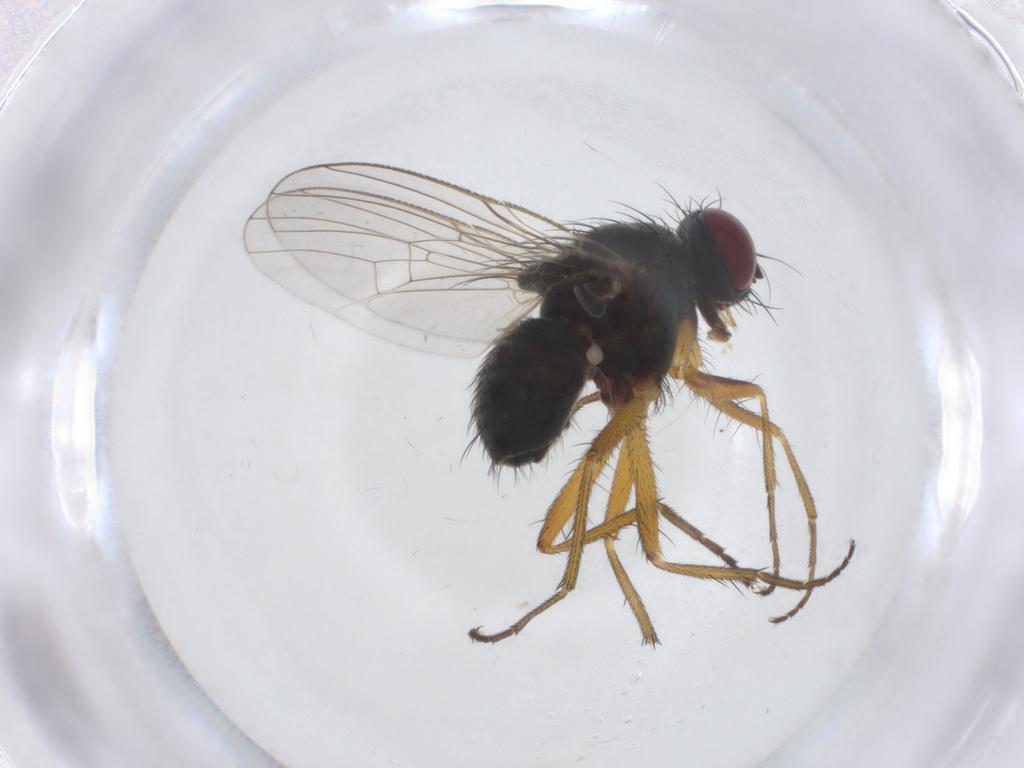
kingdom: Animalia
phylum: Arthropoda
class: Insecta
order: Diptera
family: Muscidae
